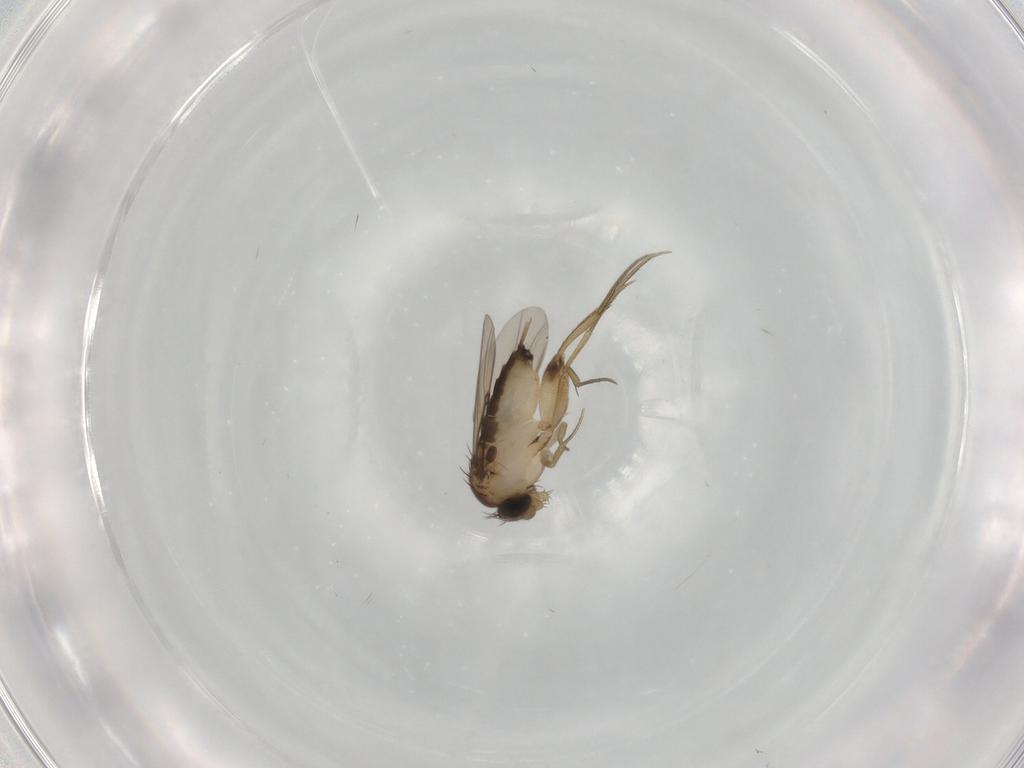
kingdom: Animalia
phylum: Arthropoda
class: Insecta
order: Diptera
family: Phoridae
